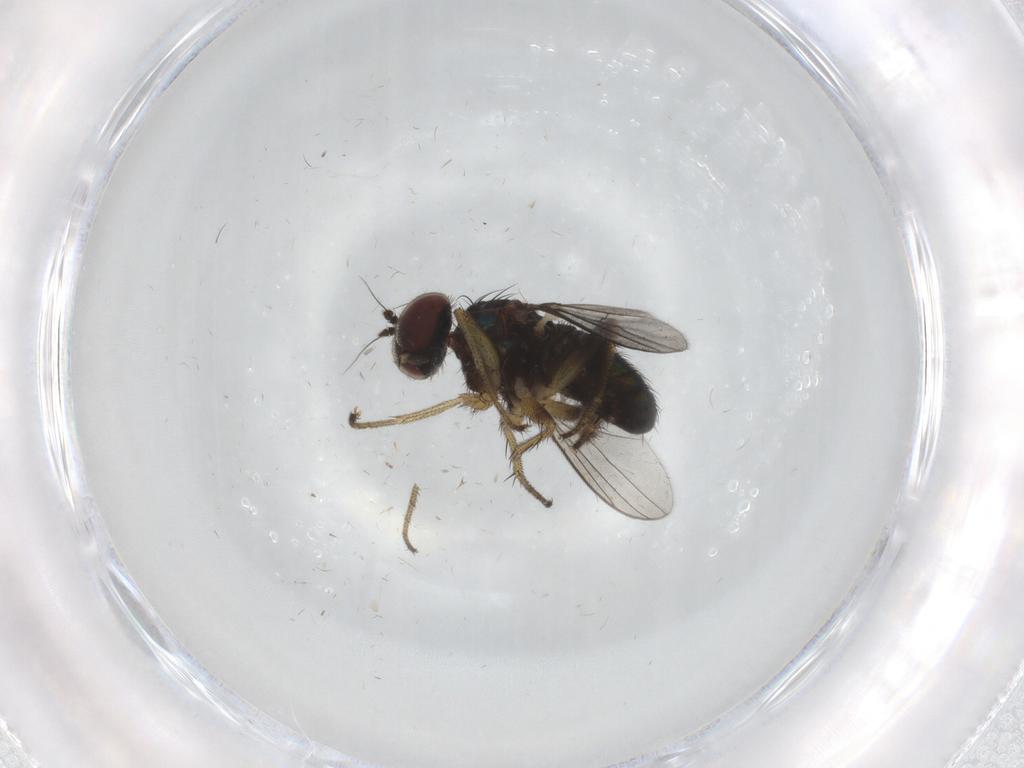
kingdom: Animalia
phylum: Arthropoda
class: Insecta
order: Diptera
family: Dolichopodidae
